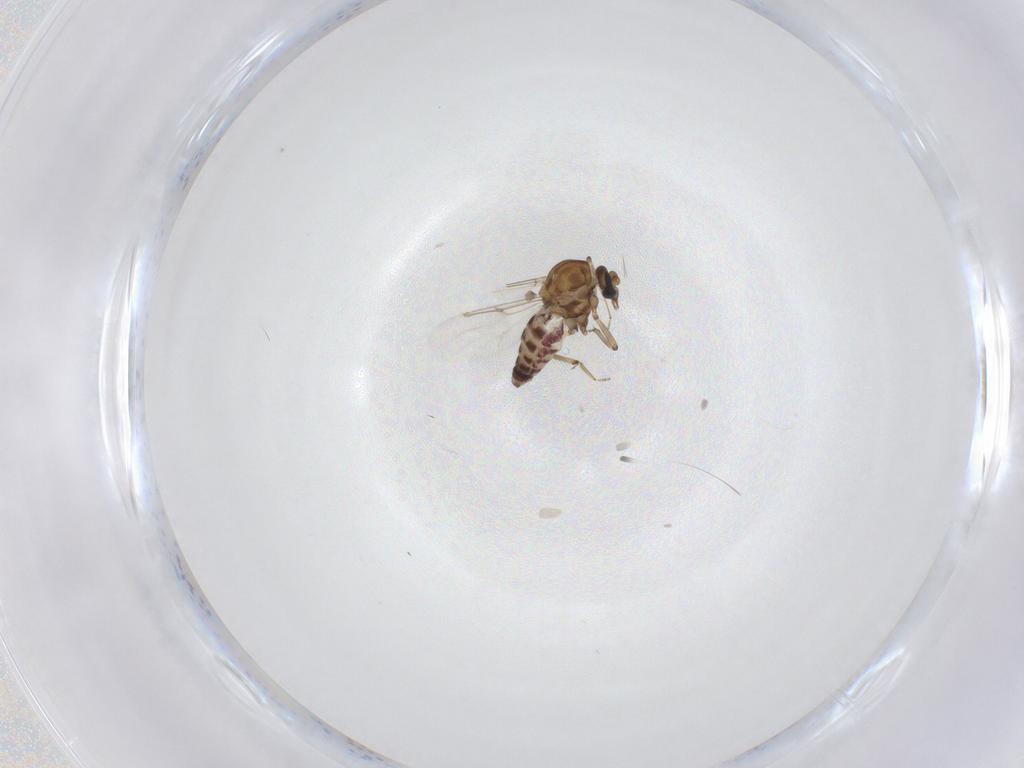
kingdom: Animalia
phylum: Arthropoda
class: Insecta
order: Diptera
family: Ceratopogonidae
